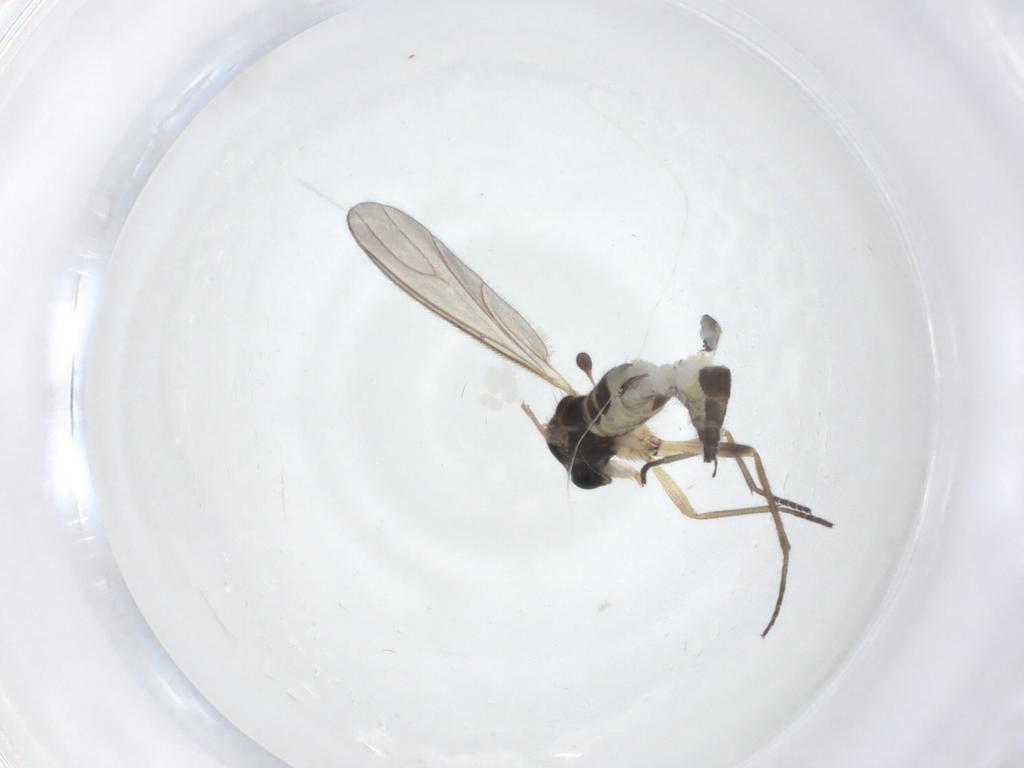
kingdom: Animalia
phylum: Arthropoda
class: Insecta
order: Diptera
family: Sciaridae
